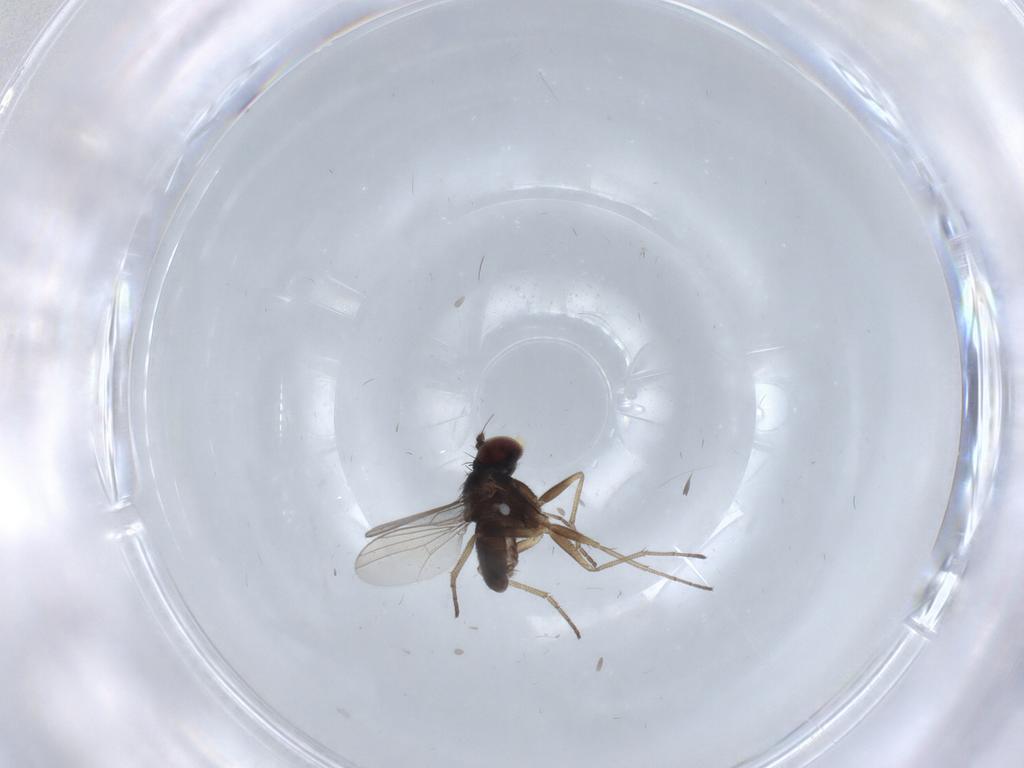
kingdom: Animalia
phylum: Arthropoda
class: Insecta
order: Diptera
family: Dolichopodidae
